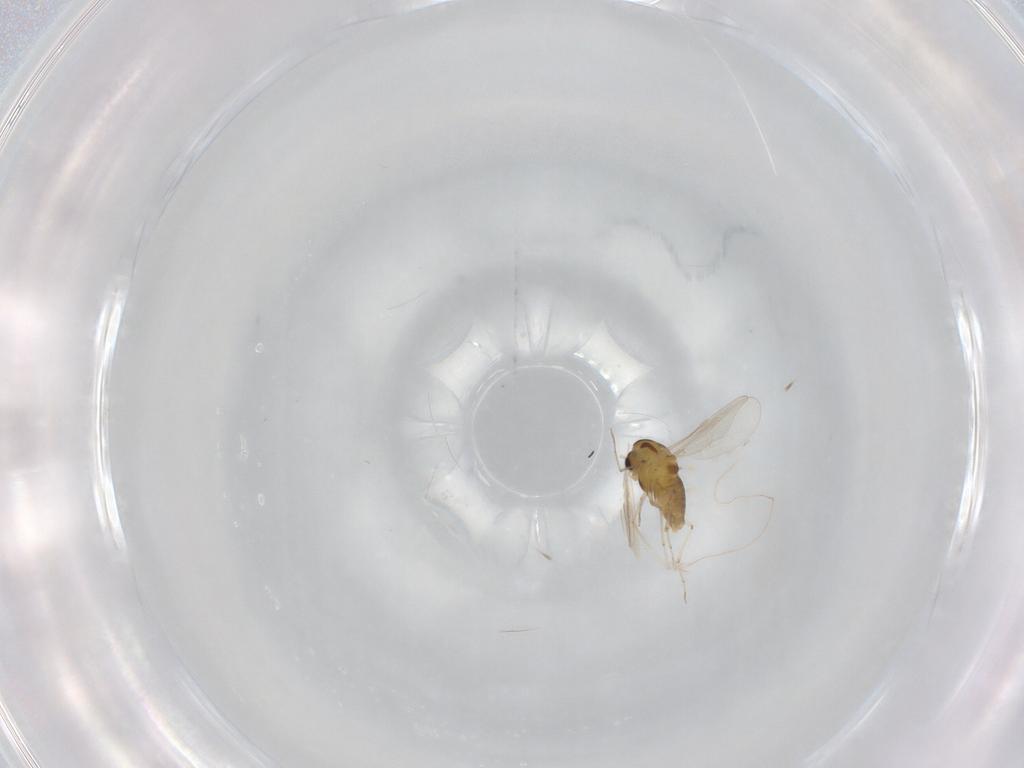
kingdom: Animalia
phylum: Arthropoda
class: Insecta
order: Diptera
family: Chironomidae
